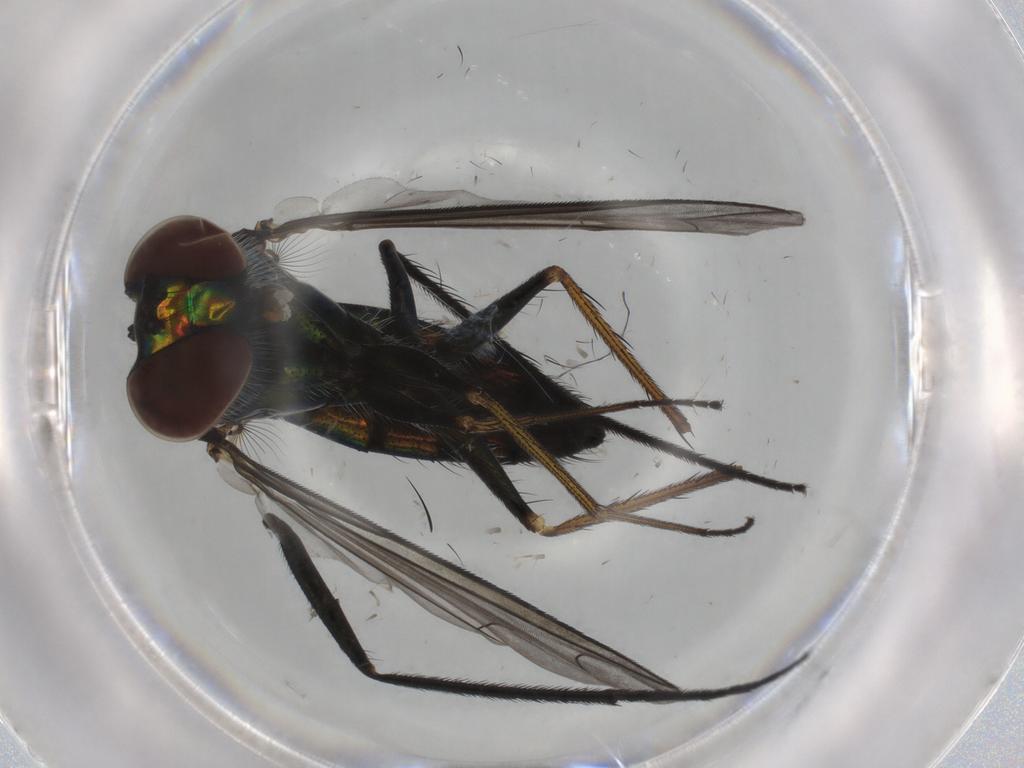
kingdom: Animalia
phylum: Arthropoda
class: Insecta
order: Diptera
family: Dolichopodidae
